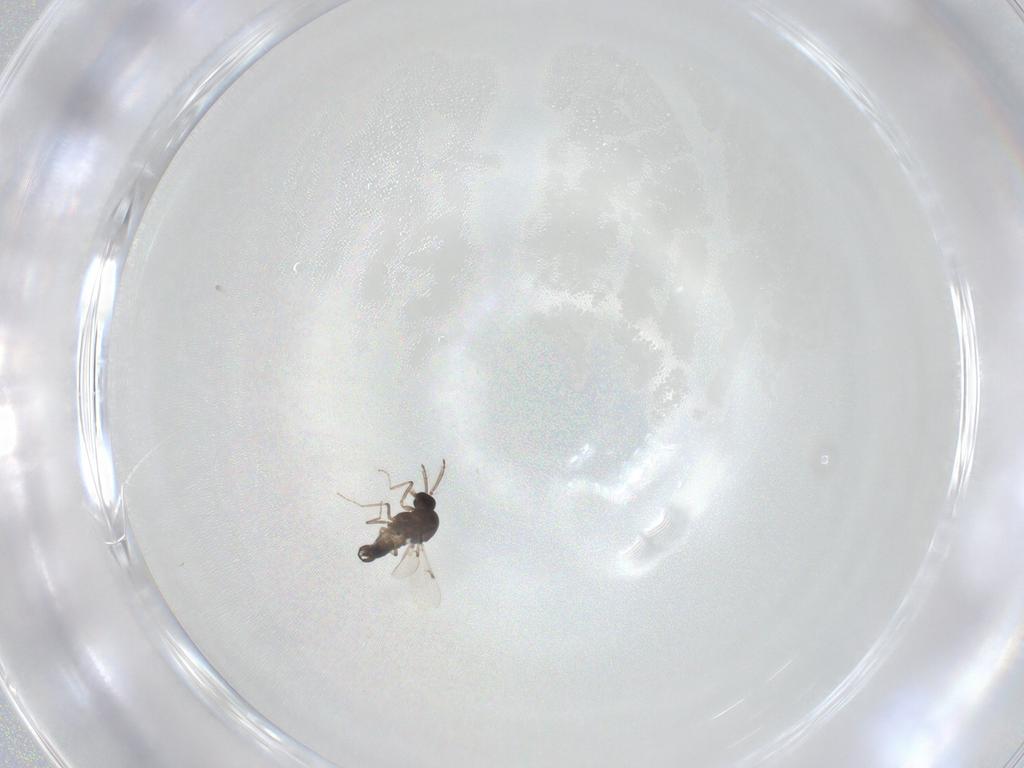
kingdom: Animalia
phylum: Arthropoda
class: Insecta
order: Diptera
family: Ceratopogonidae
